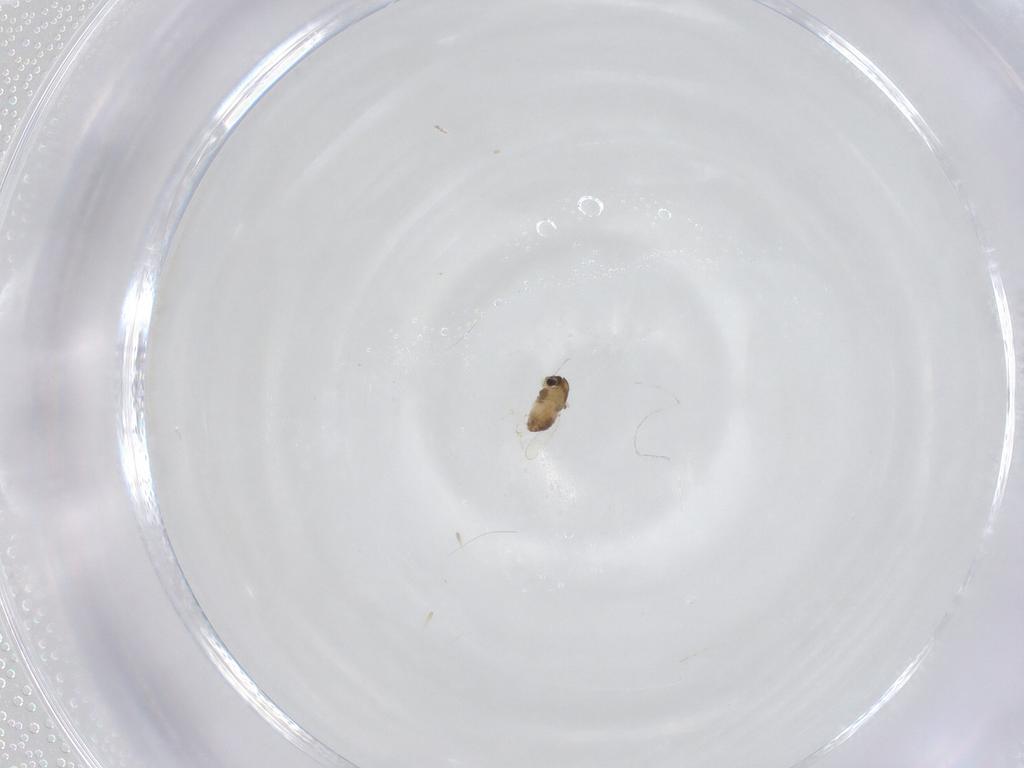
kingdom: Animalia
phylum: Arthropoda
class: Insecta
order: Diptera
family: Chironomidae
